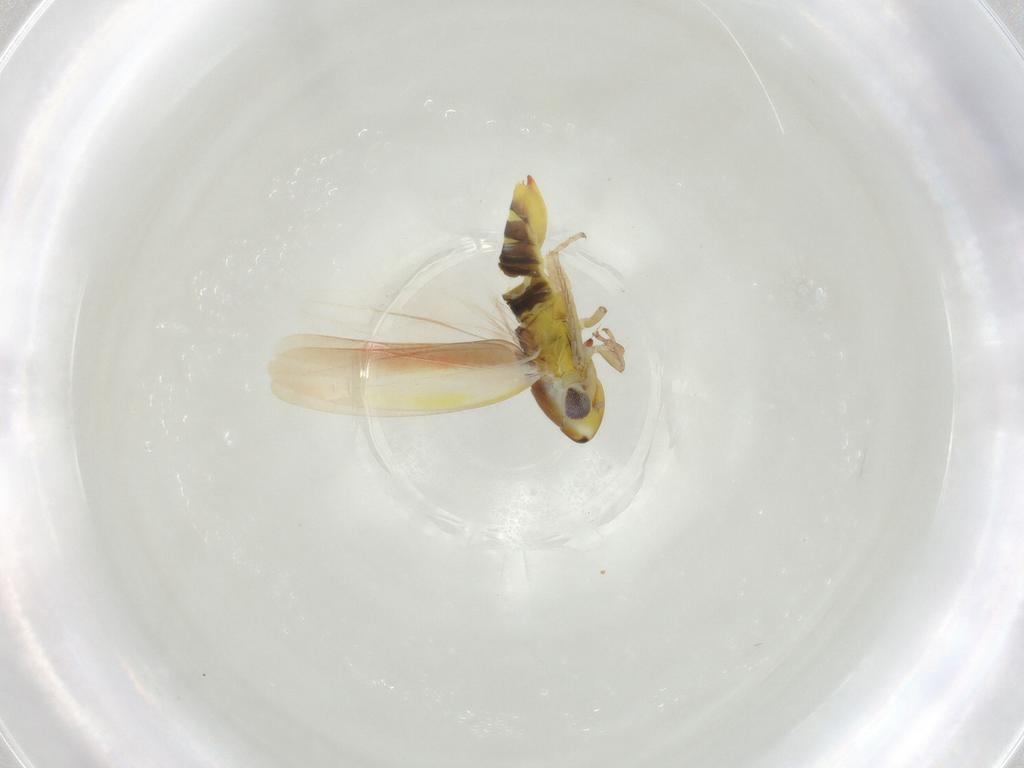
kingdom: Animalia
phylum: Arthropoda
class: Insecta
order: Hemiptera
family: Cicadellidae
